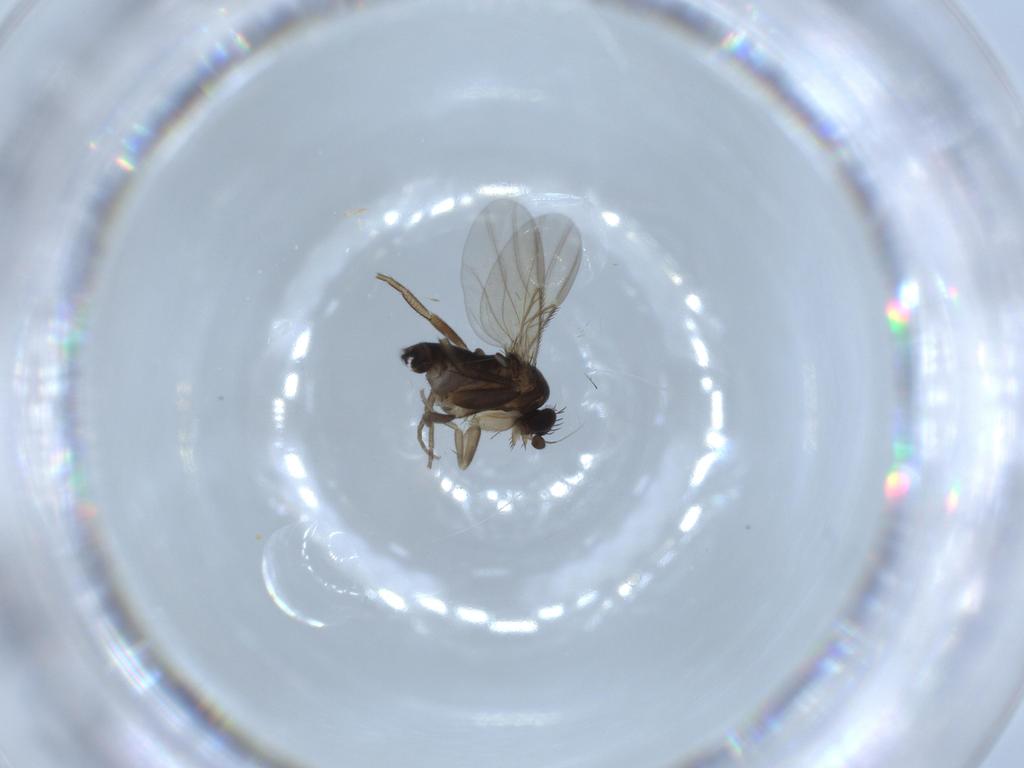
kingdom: Animalia
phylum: Arthropoda
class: Insecta
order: Diptera
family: Phoridae
